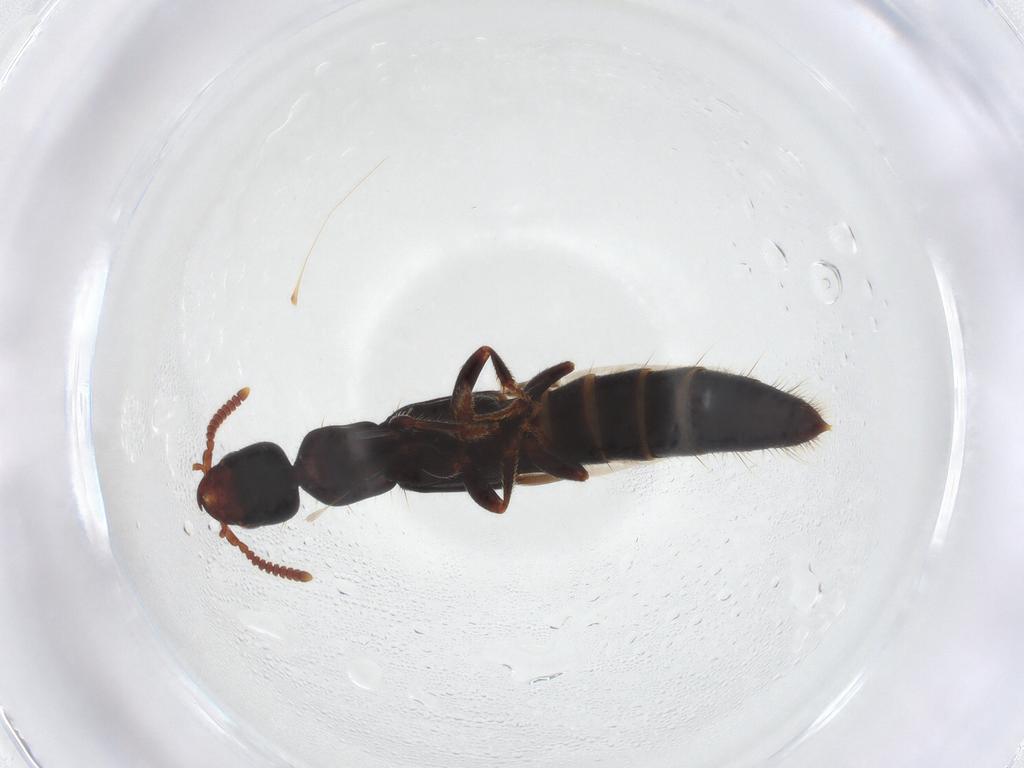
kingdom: Animalia
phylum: Arthropoda
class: Insecta
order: Coleoptera
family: Staphylinidae
